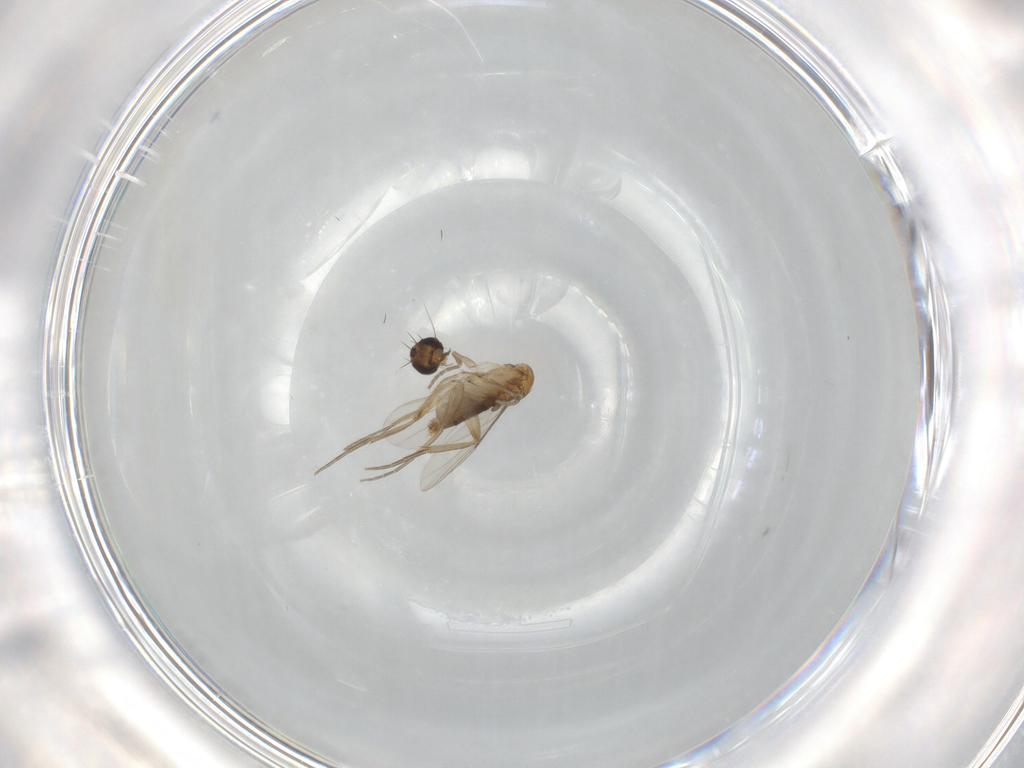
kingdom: Animalia
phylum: Arthropoda
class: Insecta
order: Diptera
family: Phoridae
